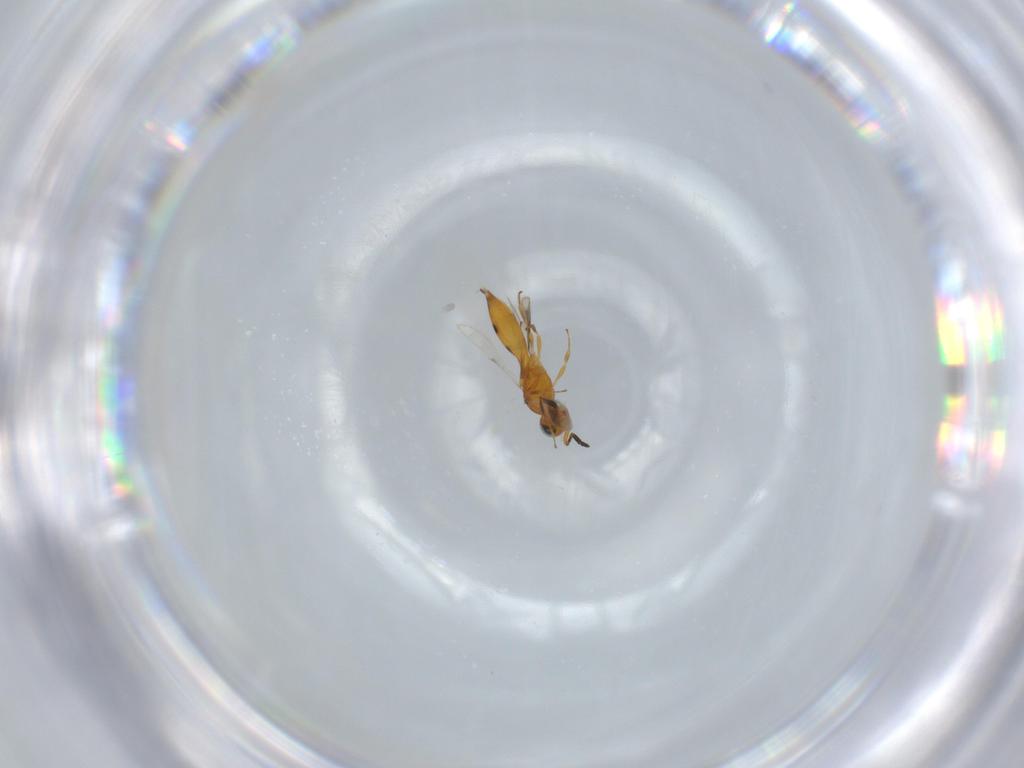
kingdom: Animalia
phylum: Arthropoda
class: Insecta
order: Hymenoptera
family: Scelionidae
